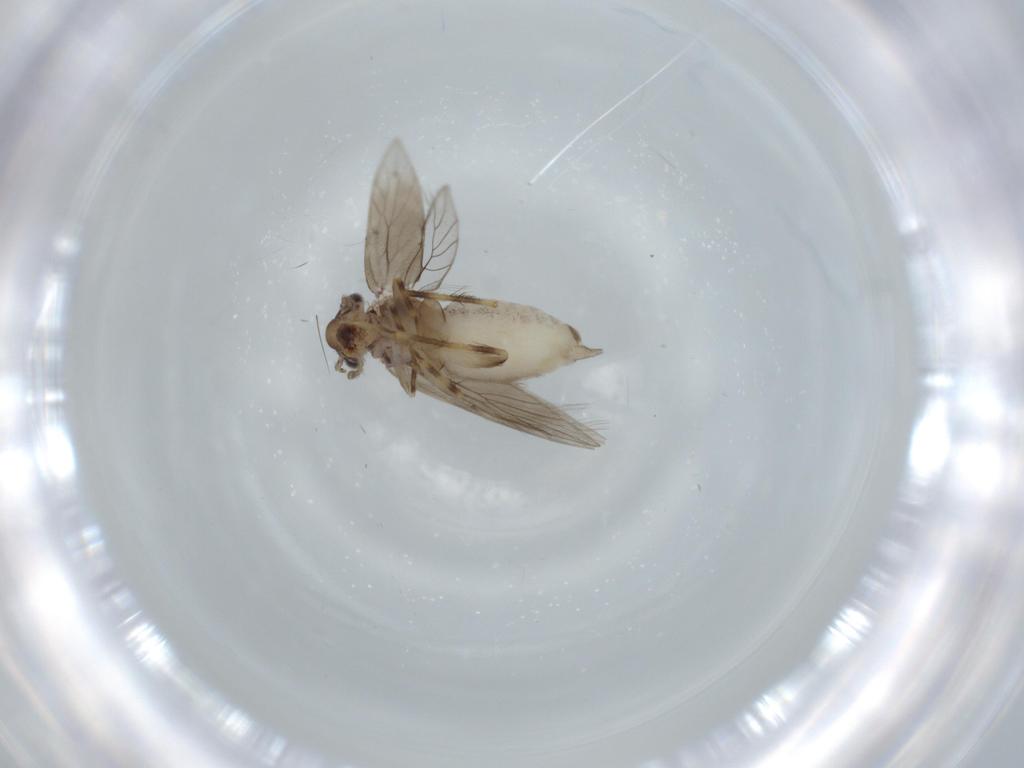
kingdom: Animalia
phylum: Arthropoda
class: Insecta
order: Psocodea
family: Lepidopsocidae
